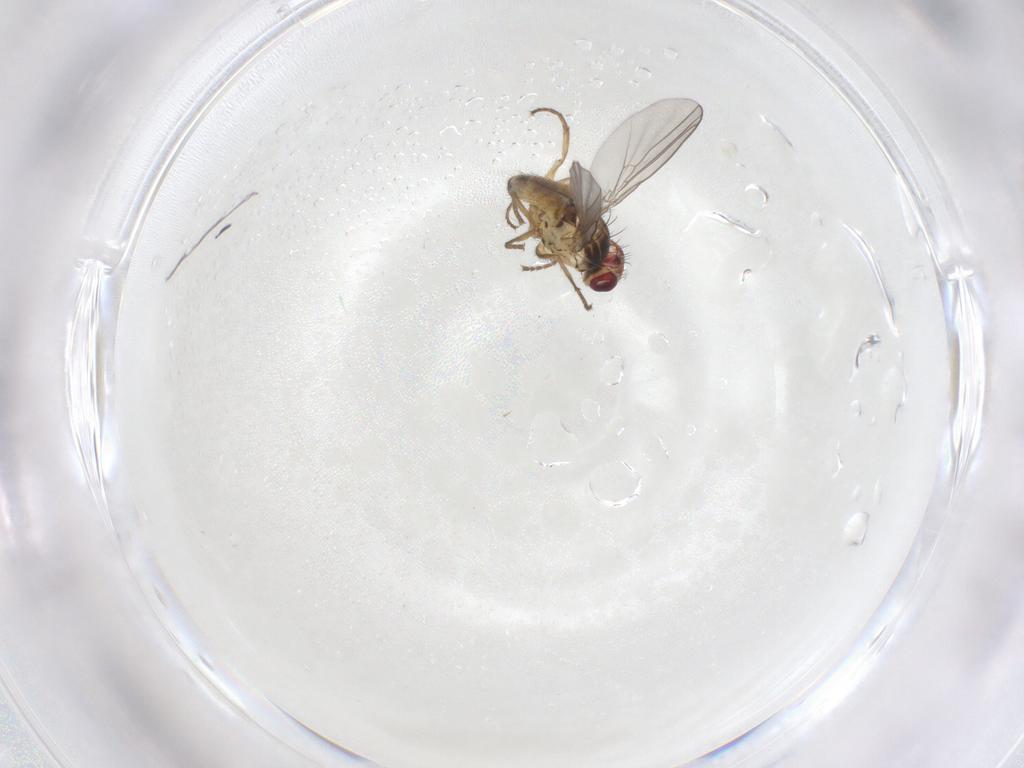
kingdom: Animalia
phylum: Arthropoda
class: Insecta
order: Diptera
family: Agromyzidae
